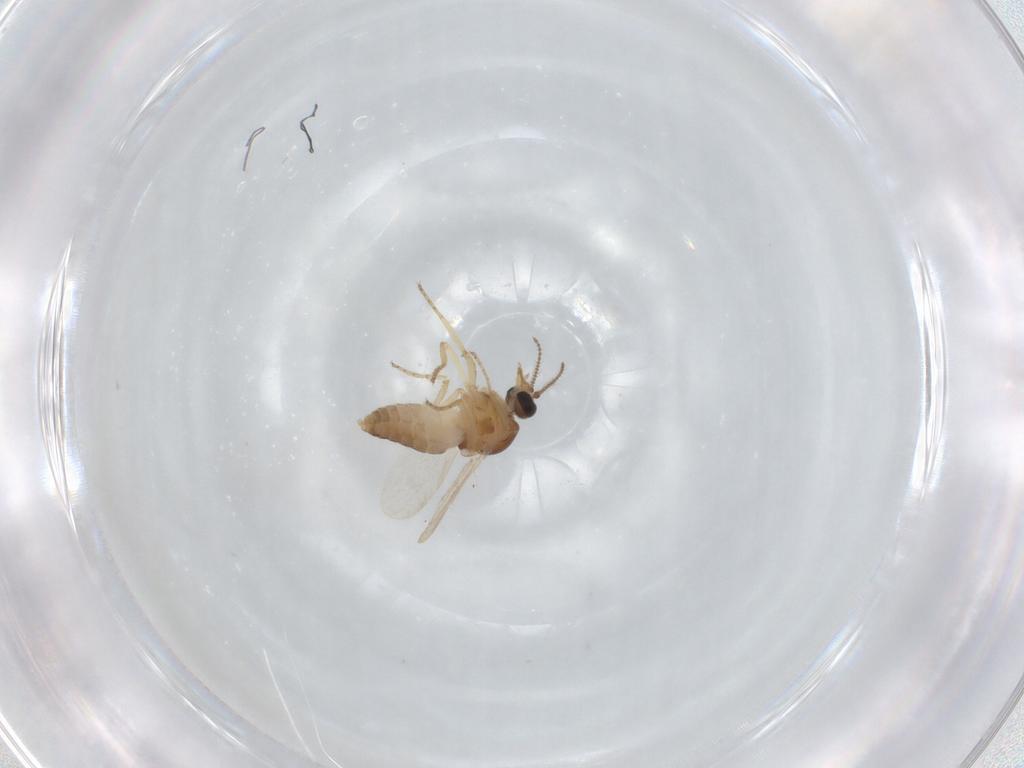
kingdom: Animalia
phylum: Arthropoda
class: Insecta
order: Diptera
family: Ceratopogonidae
